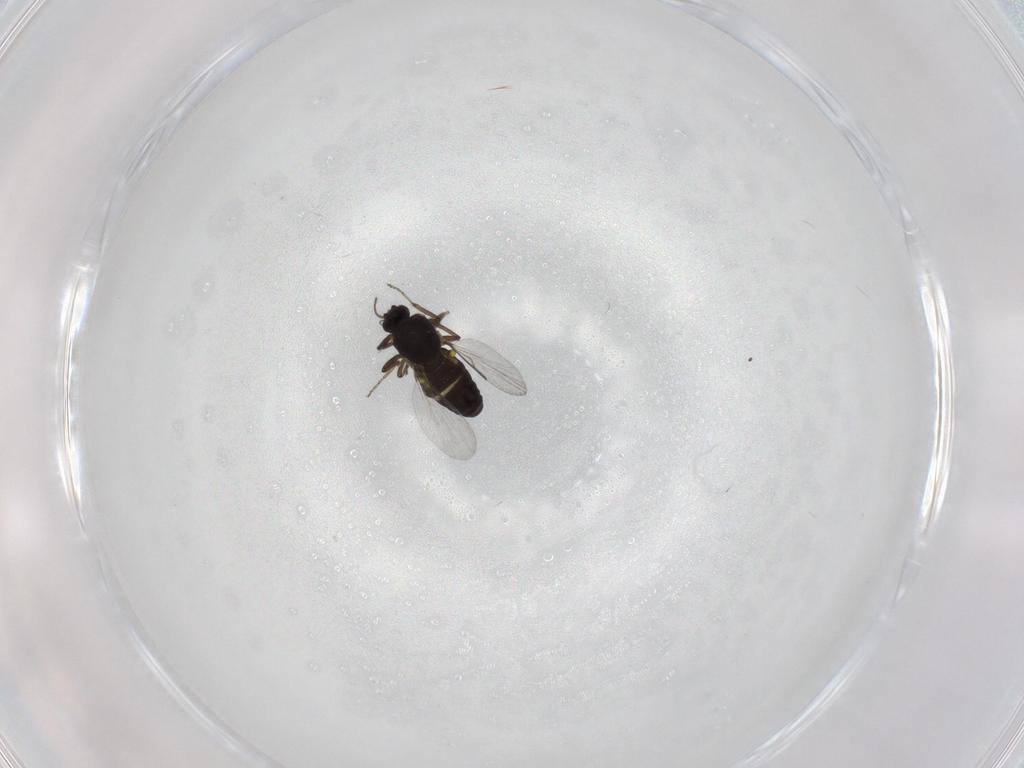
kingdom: Animalia
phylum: Arthropoda
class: Insecta
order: Diptera
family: Ceratopogonidae
